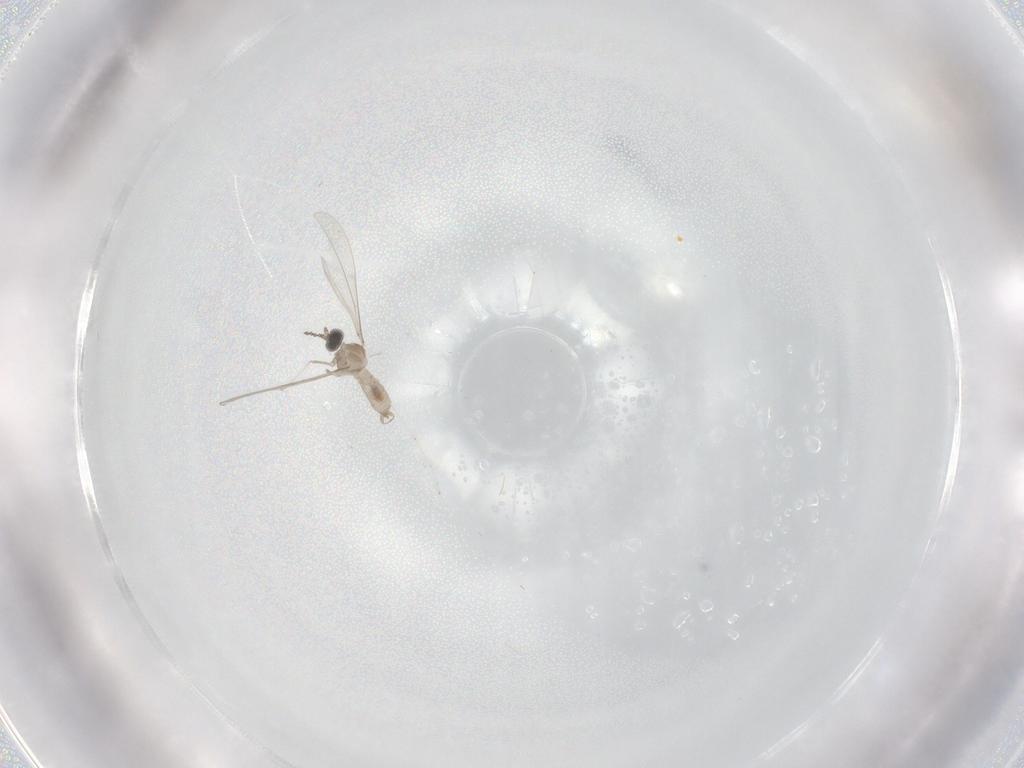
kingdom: Animalia
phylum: Arthropoda
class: Insecta
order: Diptera
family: Cecidomyiidae
